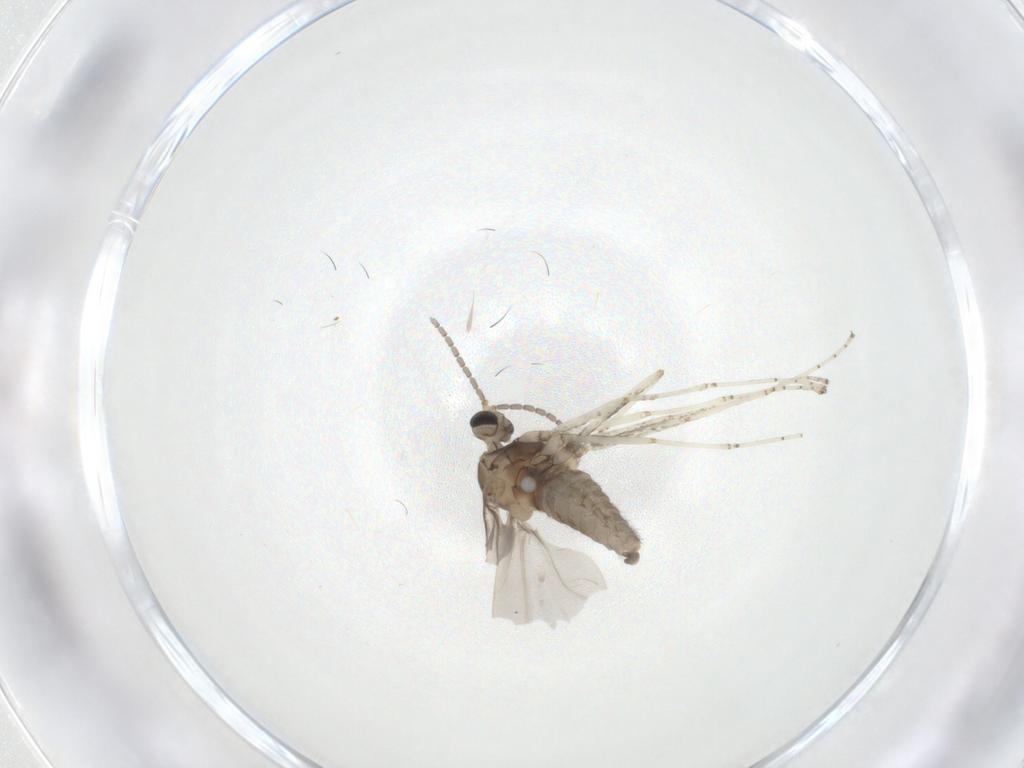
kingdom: Animalia
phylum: Arthropoda
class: Insecta
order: Diptera
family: Cecidomyiidae
